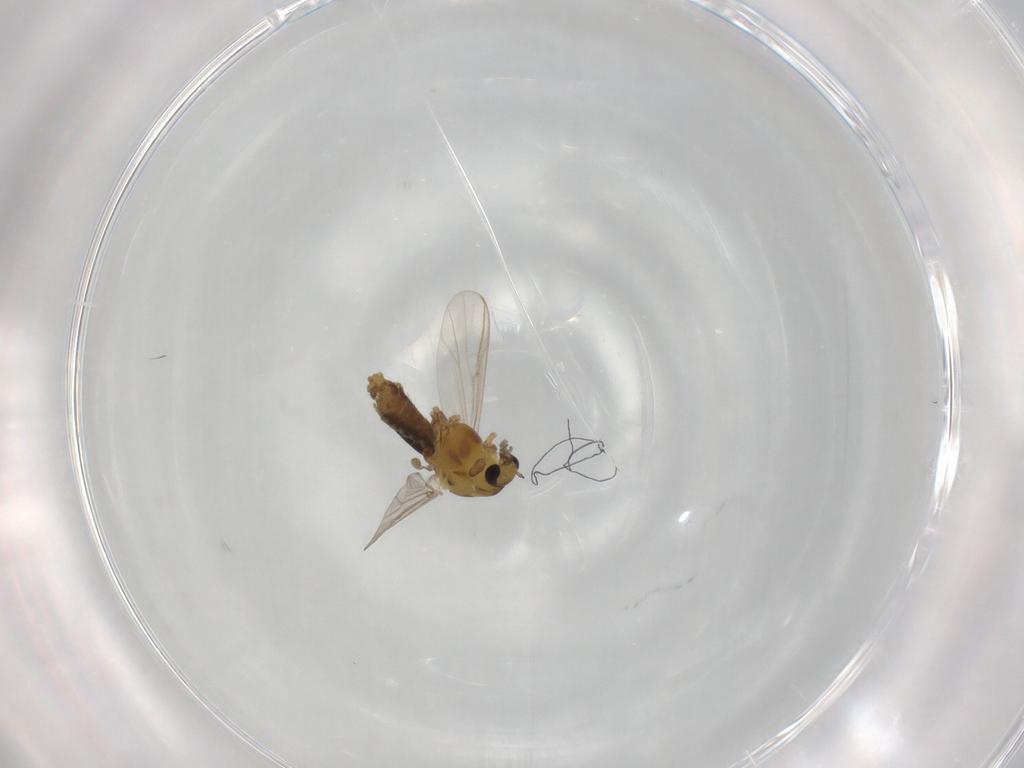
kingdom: Animalia
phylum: Arthropoda
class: Insecta
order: Diptera
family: Chironomidae
